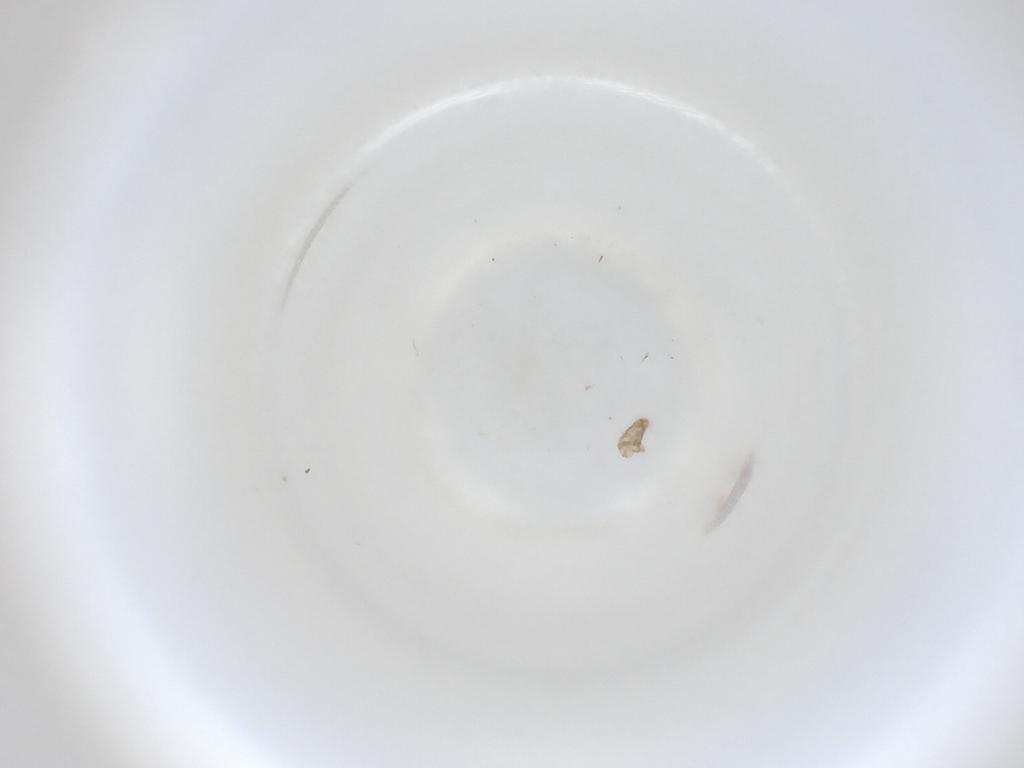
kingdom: Animalia
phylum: Arthropoda
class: Insecta
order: Diptera
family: Cecidomyiidae
